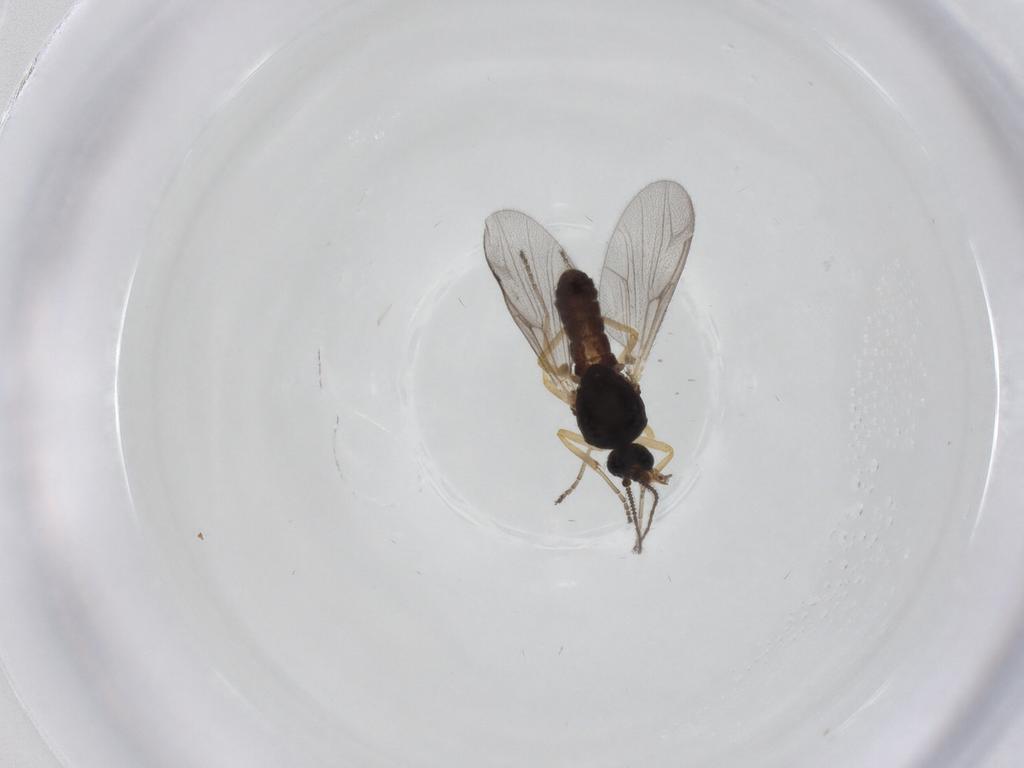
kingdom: Animalia
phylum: Arthropoda
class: Insecta
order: Diptera
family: Ceratopogonidae
